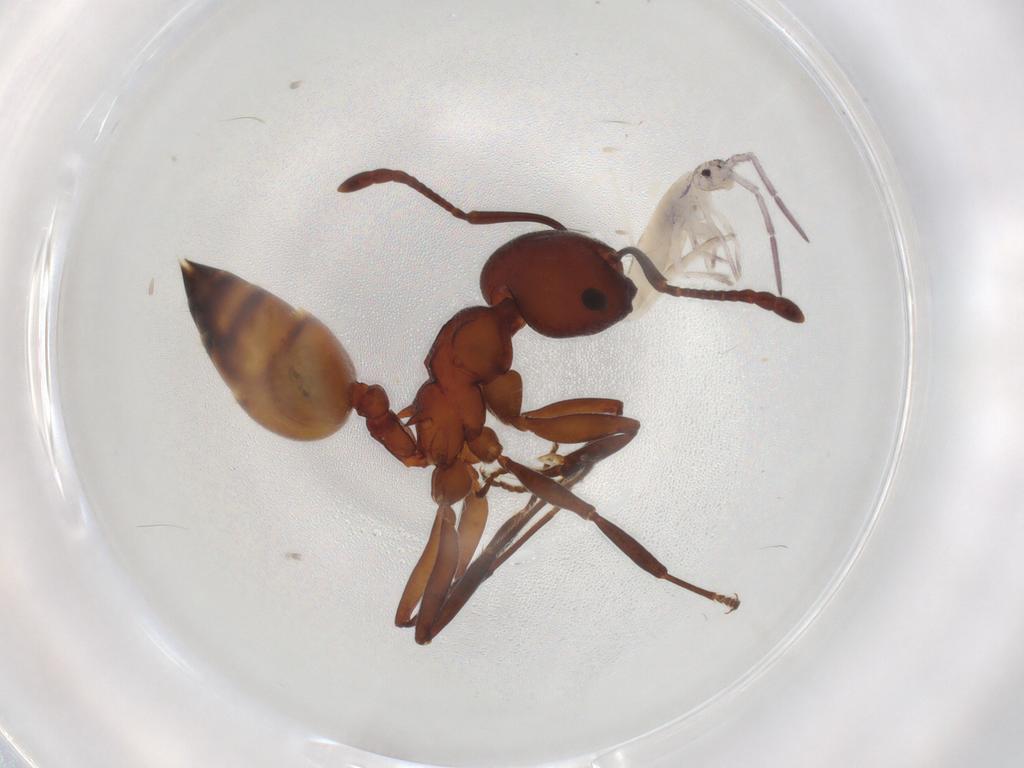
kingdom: Animalia
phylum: Arthropoda
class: Insecta
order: Hymenoptera
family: Formicidae
